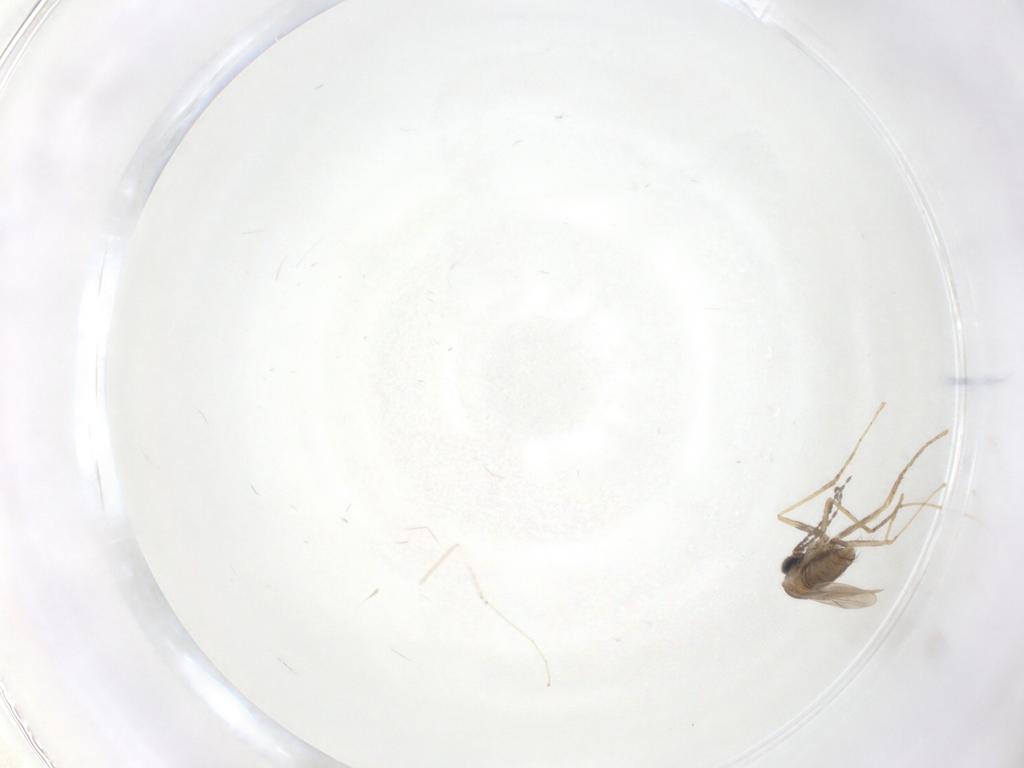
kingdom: Animalia
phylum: Arthropoda
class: Insecta
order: Diptera
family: Cecidomyiidae
